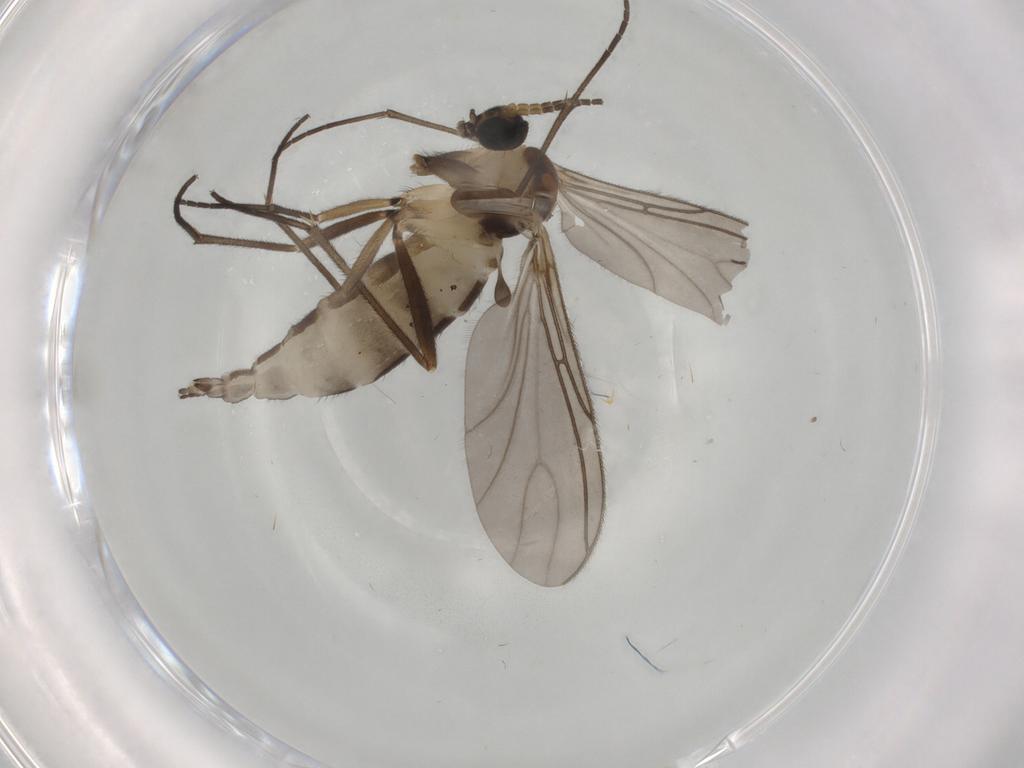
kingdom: Animalia
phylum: Arthropoda
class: Insecta
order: Diptera
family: Sciaridae
